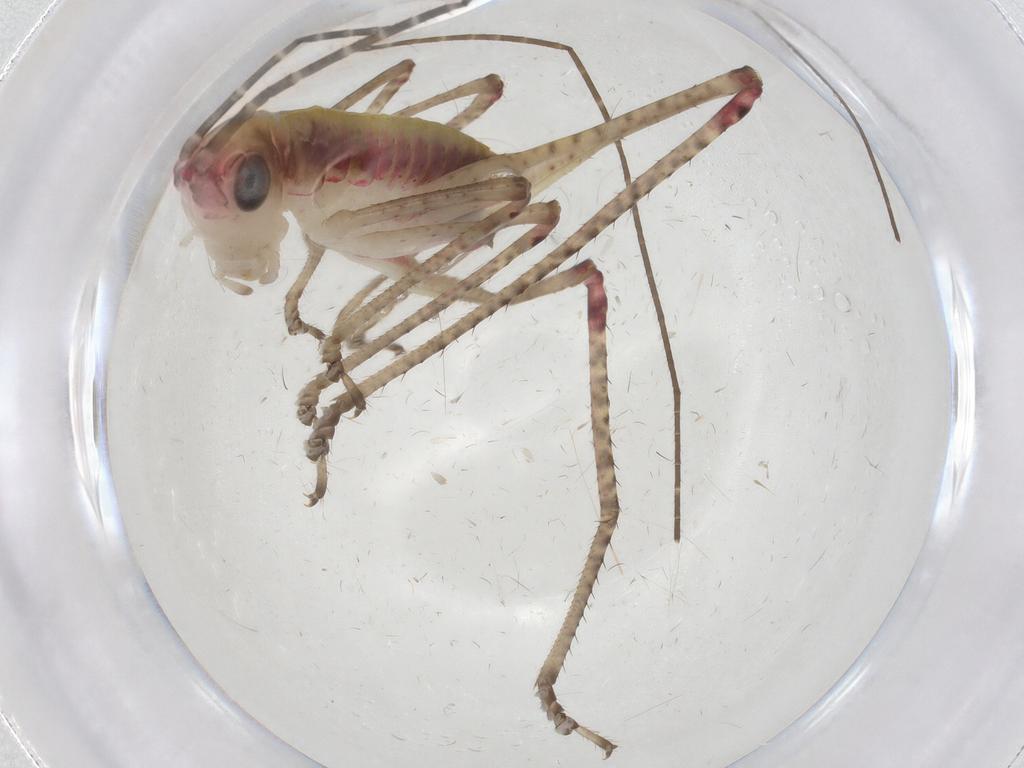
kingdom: Animalia
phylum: Arthropoda
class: Insecta
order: Orthoptera
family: Tettigoniidae
